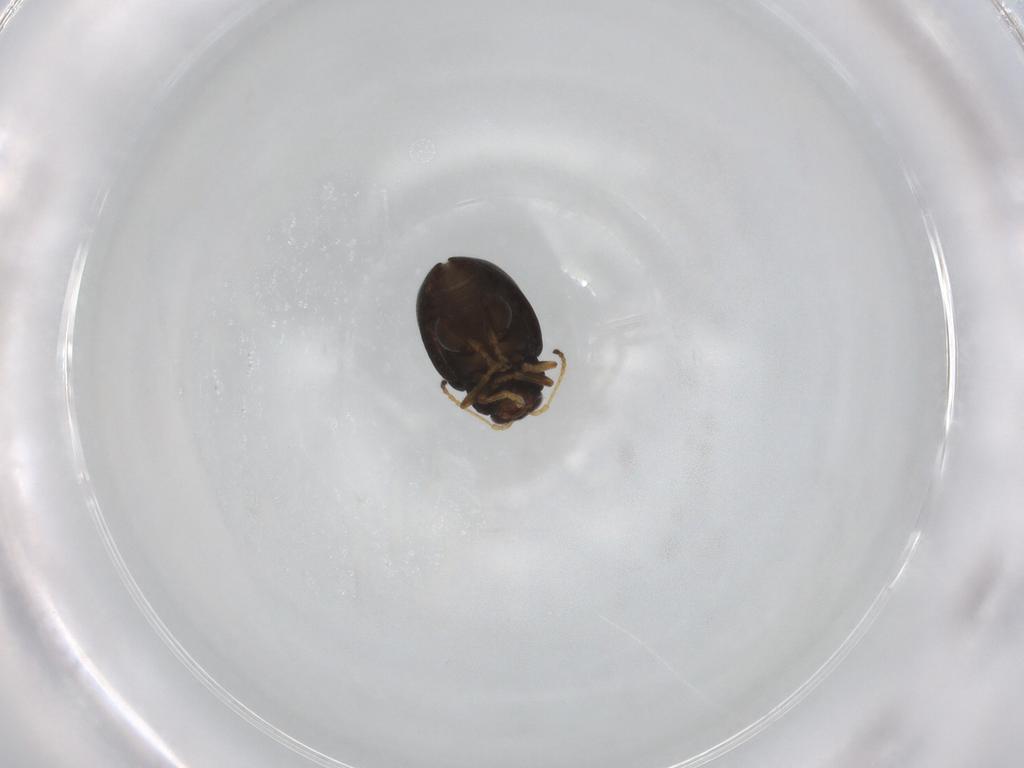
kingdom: Animalia
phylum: Arthropoda
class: Insecta
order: Coleoptera
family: Chrysomelidae
